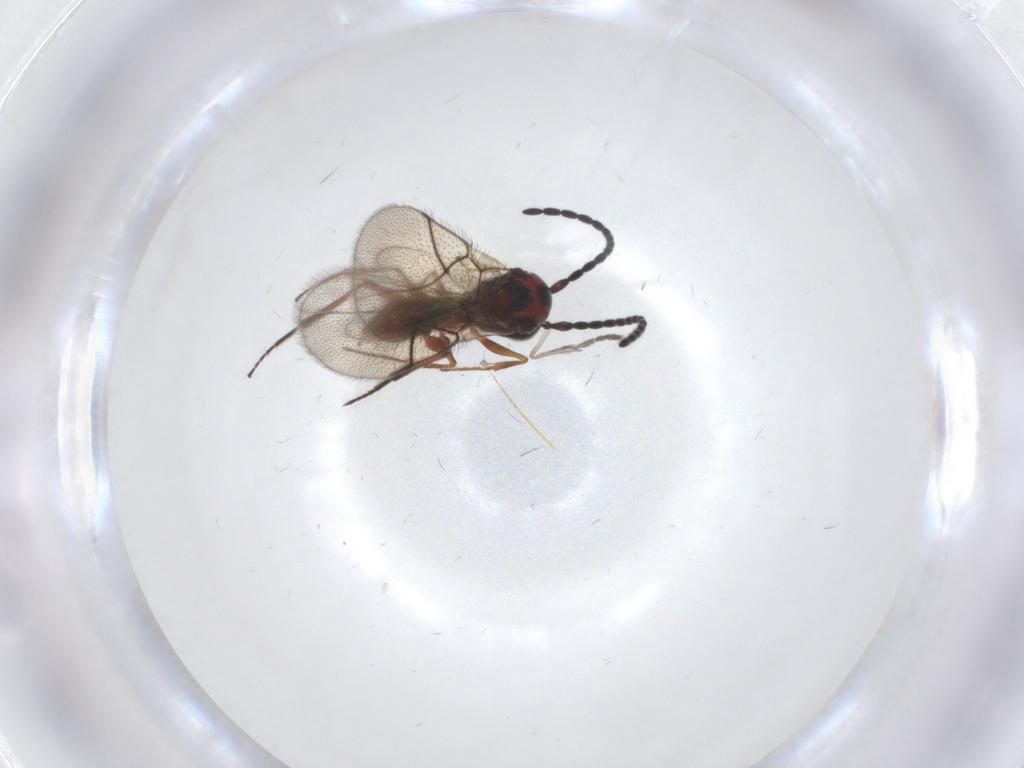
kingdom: Animalia
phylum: Arthropoda
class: Insecta
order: Hymenoptera
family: Figitidae
